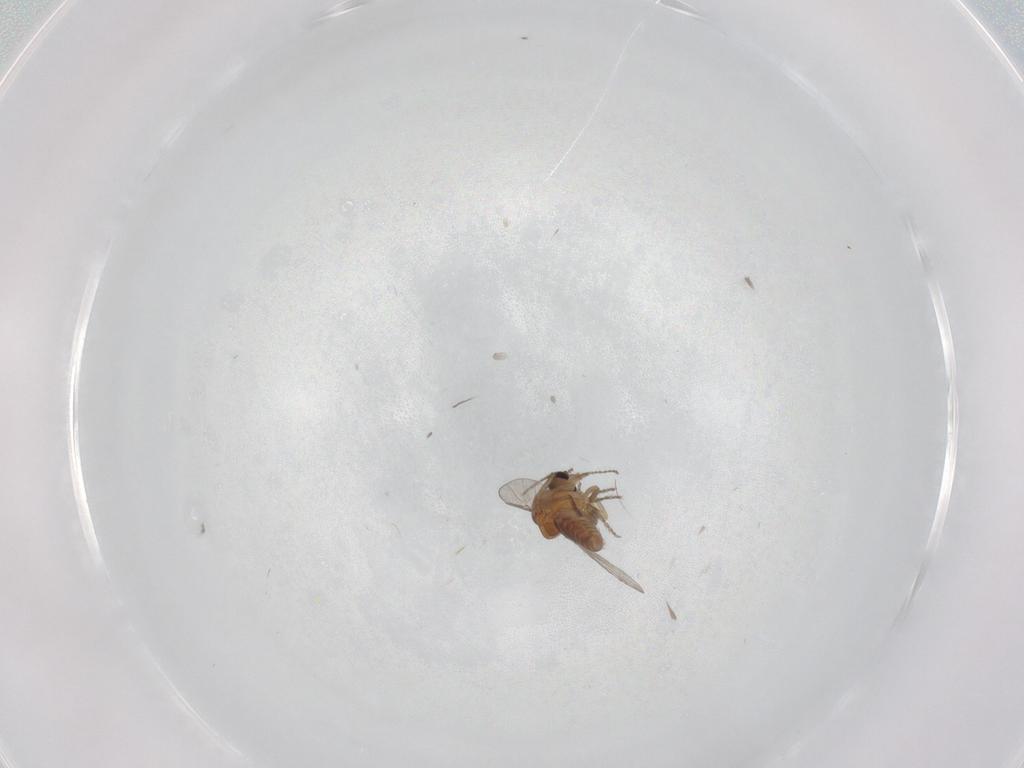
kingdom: Animalia
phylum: Arthropoda
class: Insecta
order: Diptera
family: Ceratopogonidae
